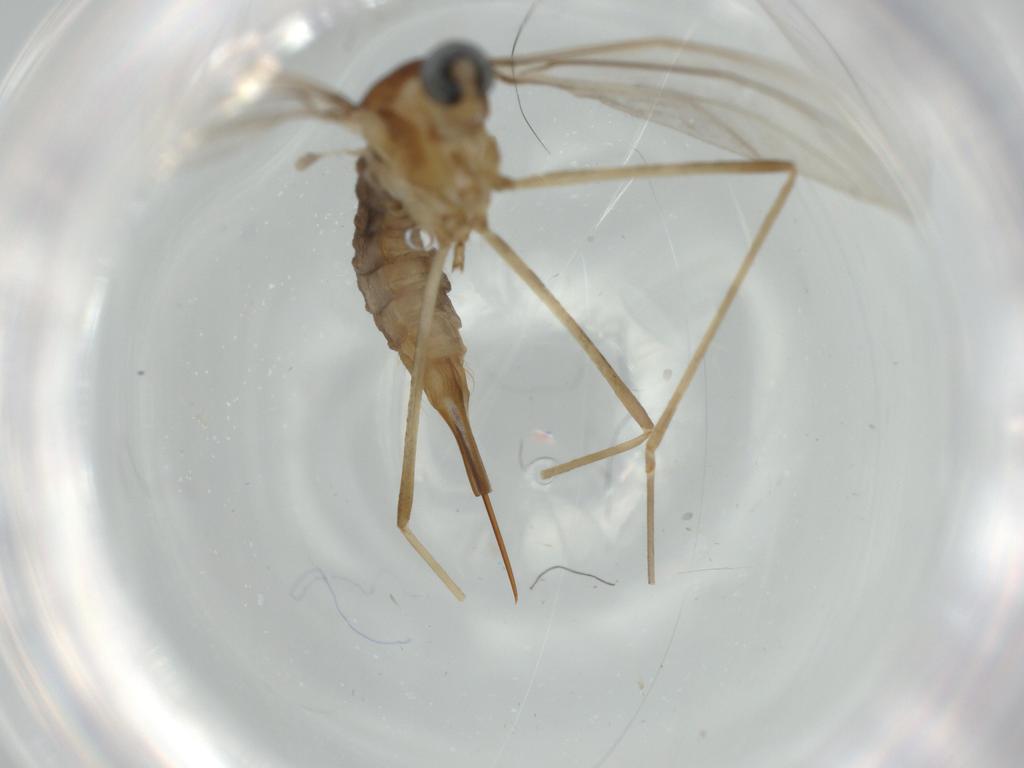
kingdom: Animalia
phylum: Arthropoda
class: Insecta
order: Diptera
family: Cecidomyiidae
